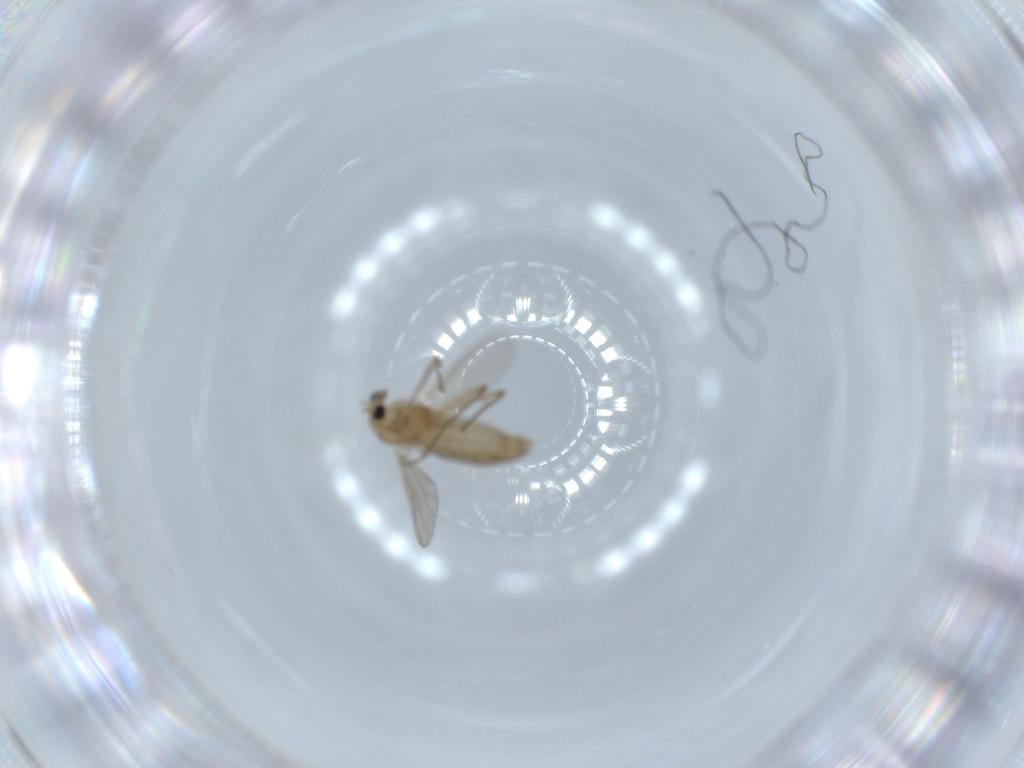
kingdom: Animalia
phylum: Arthropoda
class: Insecta
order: Diptera
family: Chironomidae
